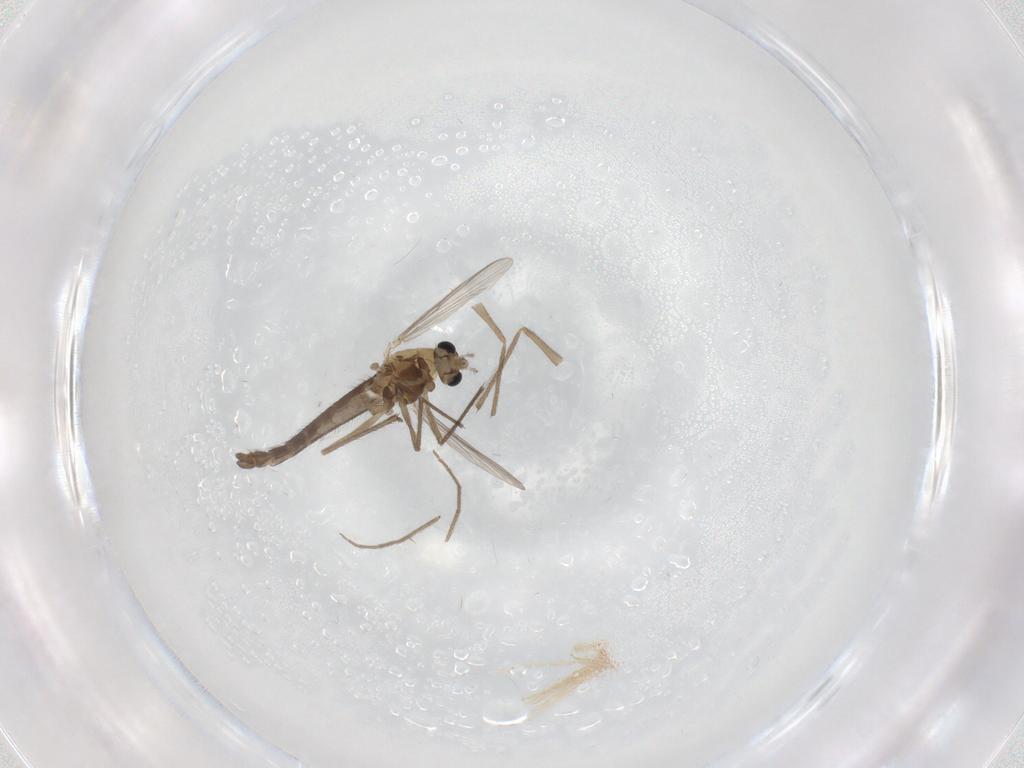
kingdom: Animalia
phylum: Arthropoda
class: Insecta
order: Diptera
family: Chironomidae
